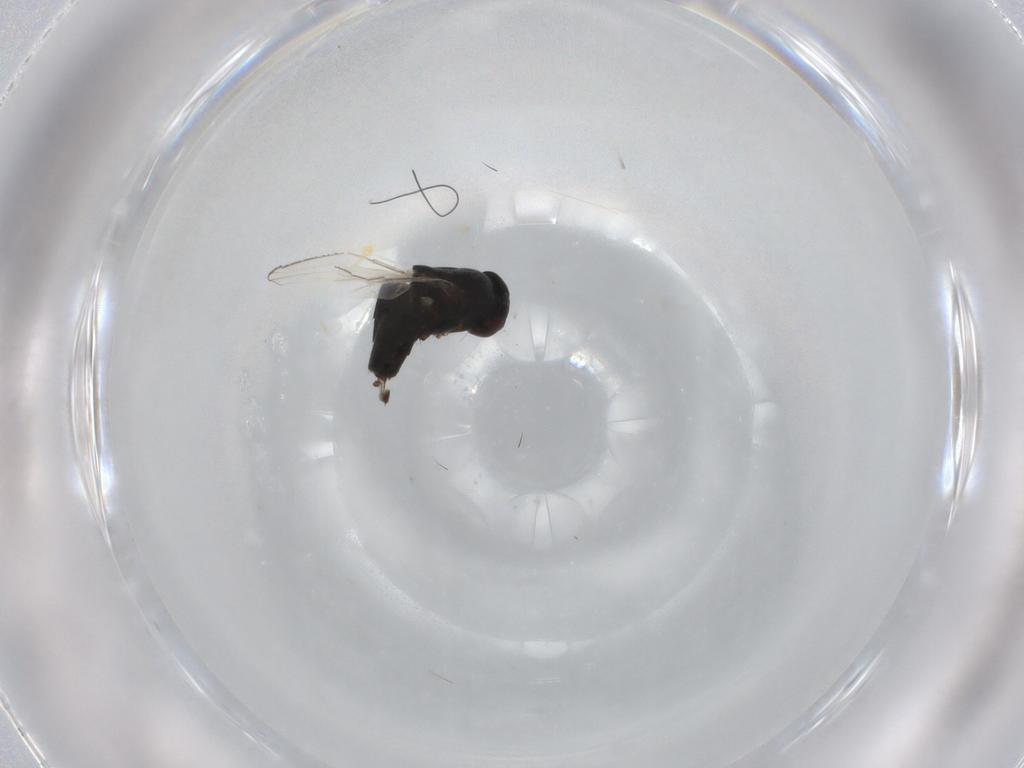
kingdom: Animalia
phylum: Arthropoda
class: Insecta
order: Diptera
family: Milichiidae
